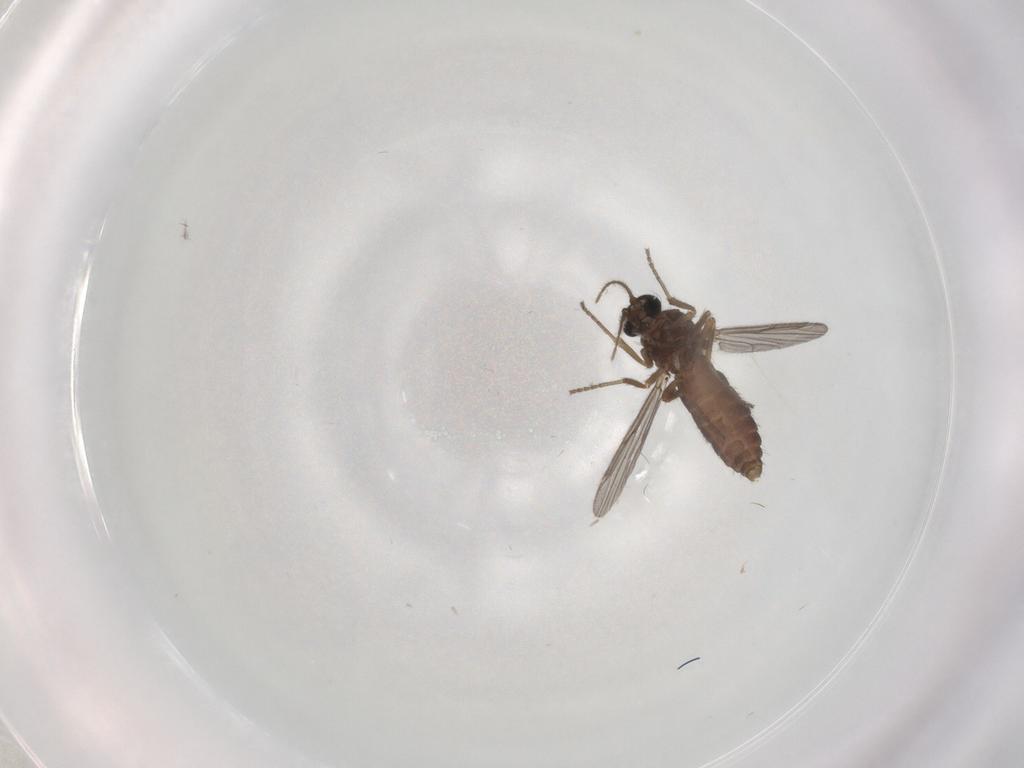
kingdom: Animalia
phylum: Arthropoda
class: Insecta
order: Diptera
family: Ceratopogonidae
